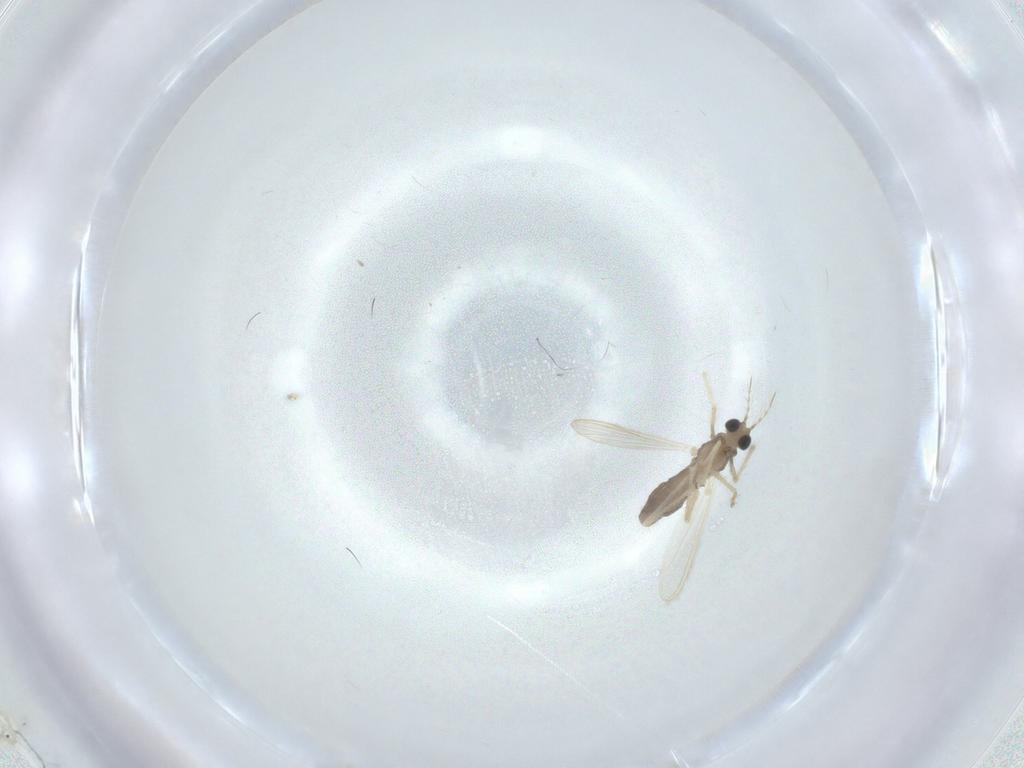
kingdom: Animalia
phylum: Arthropoda
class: Insecta
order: Diptera
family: Chironomidae
